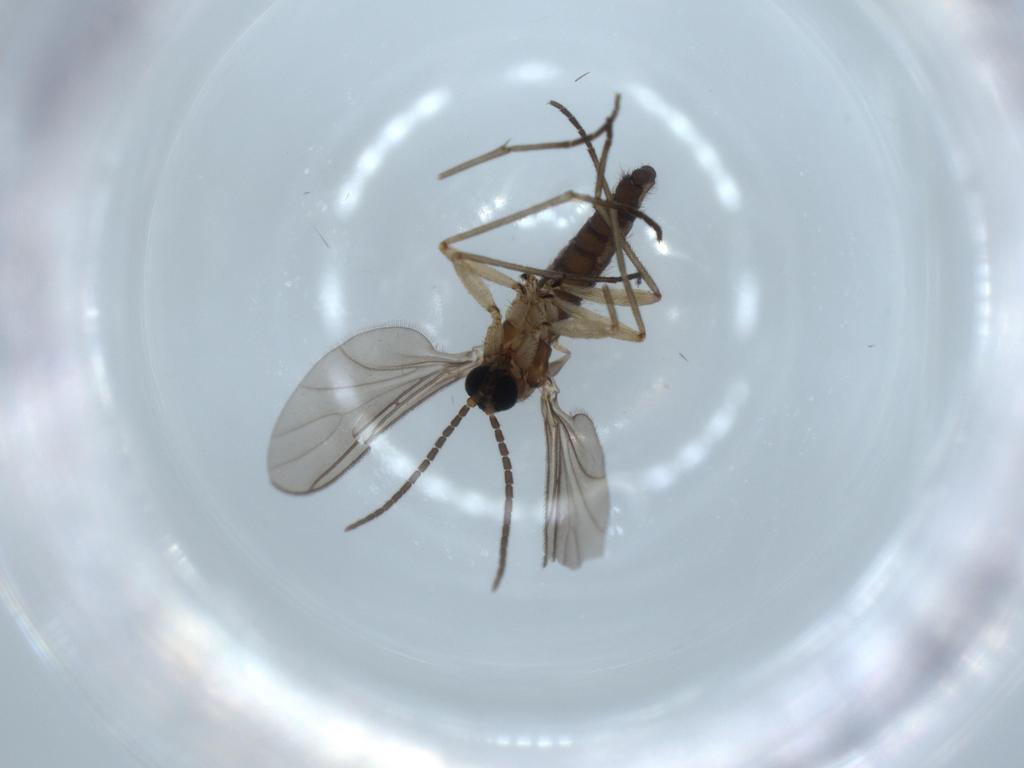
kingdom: Animalia
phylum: Arthropoda
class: Insecta
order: Diptera
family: Sciaridae
